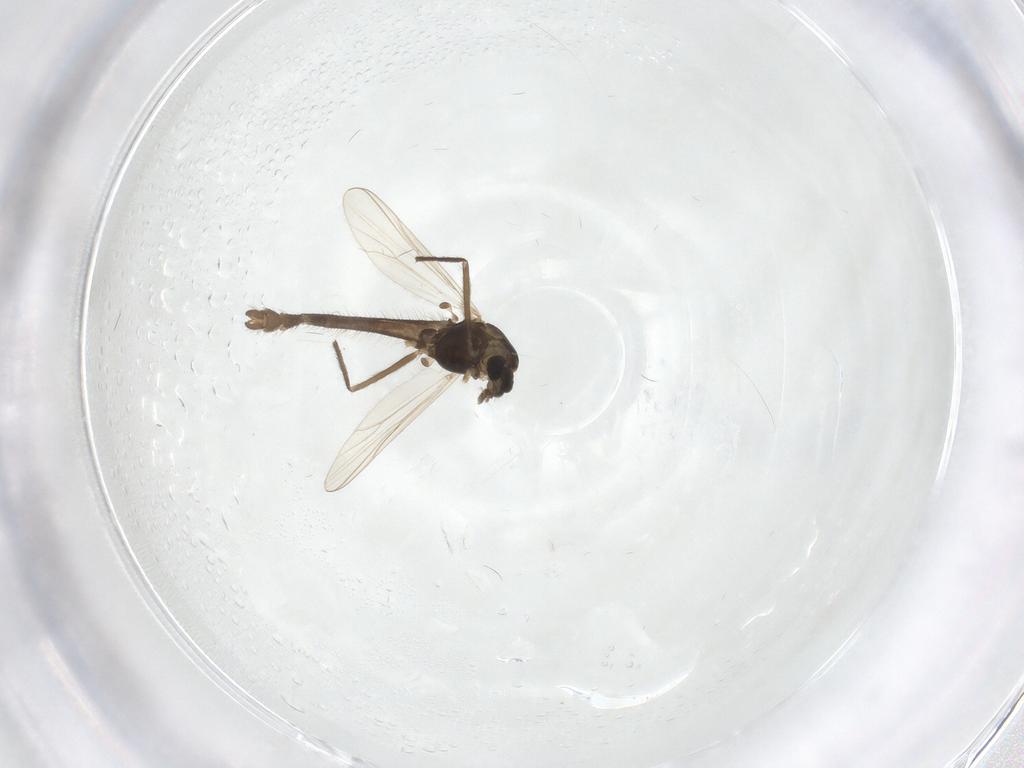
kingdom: Animalia
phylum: Arthropoda
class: Insecta
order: Diptera
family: Chironomidae
